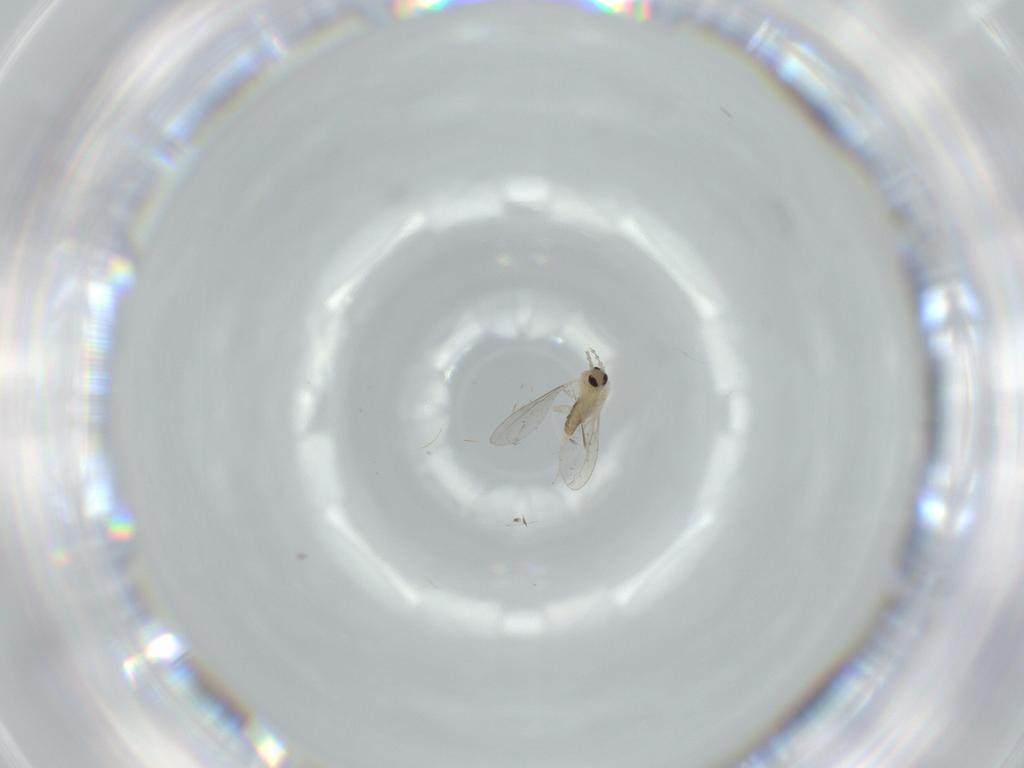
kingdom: Animalia
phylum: Arthropoda
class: Insecta
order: Diptera
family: Cecidomyiidae
